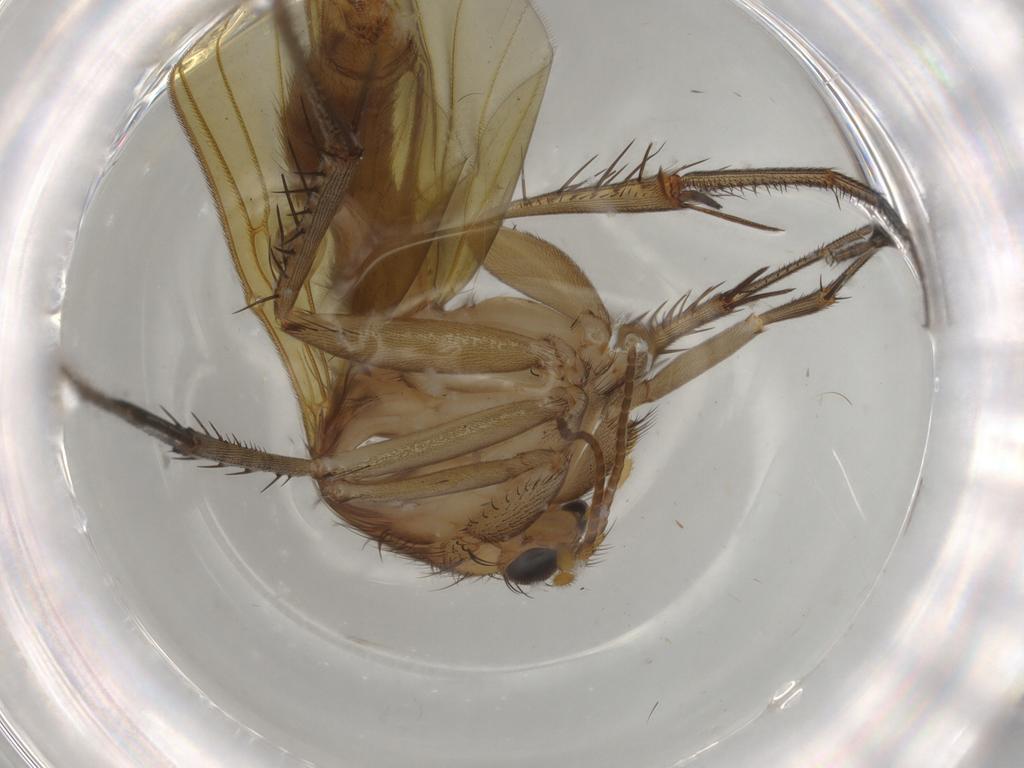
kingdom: Animalia
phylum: Arthropoda
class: Insecta
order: Diptera
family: Mycetophilidae
